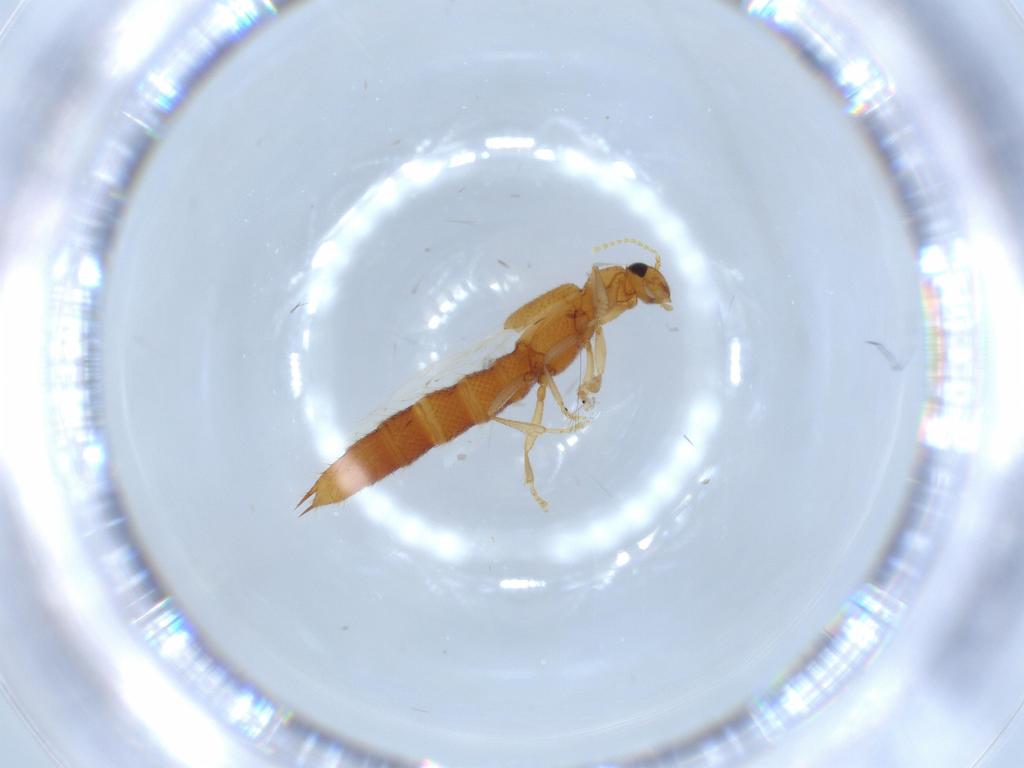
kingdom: Animalia
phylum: Arthropoda
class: Insecta
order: Coleoptera
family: Staphylinidae
